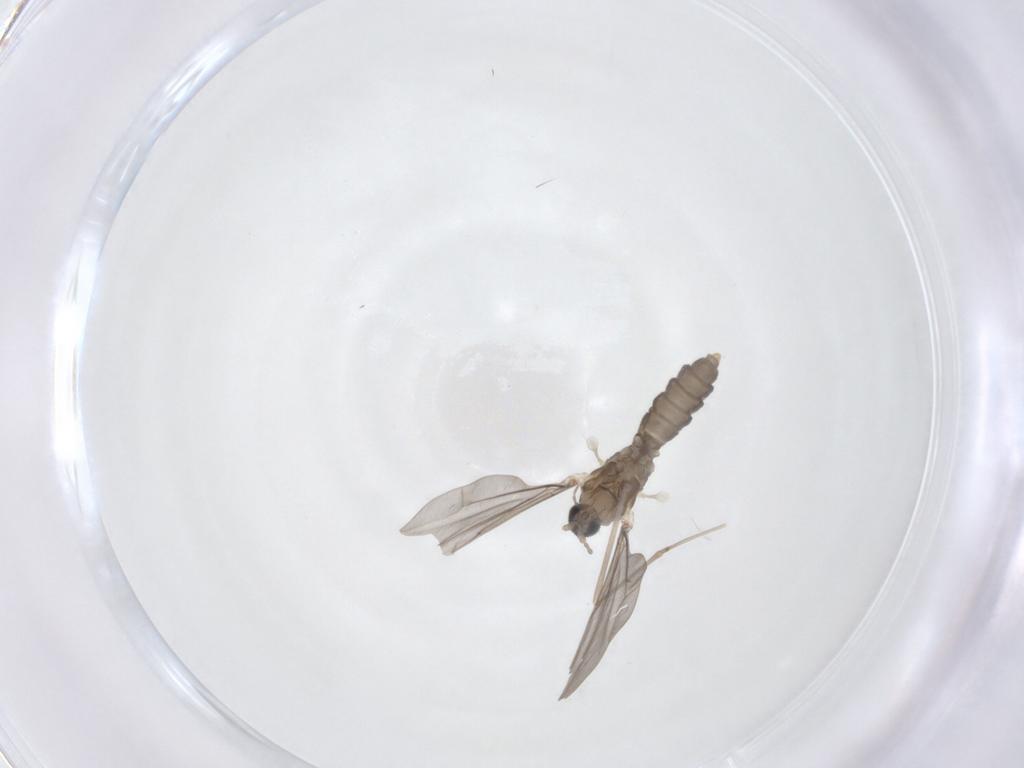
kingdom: Animalia
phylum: Arthropoda
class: Insecta
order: Diptera
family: Cecidomyiidae
